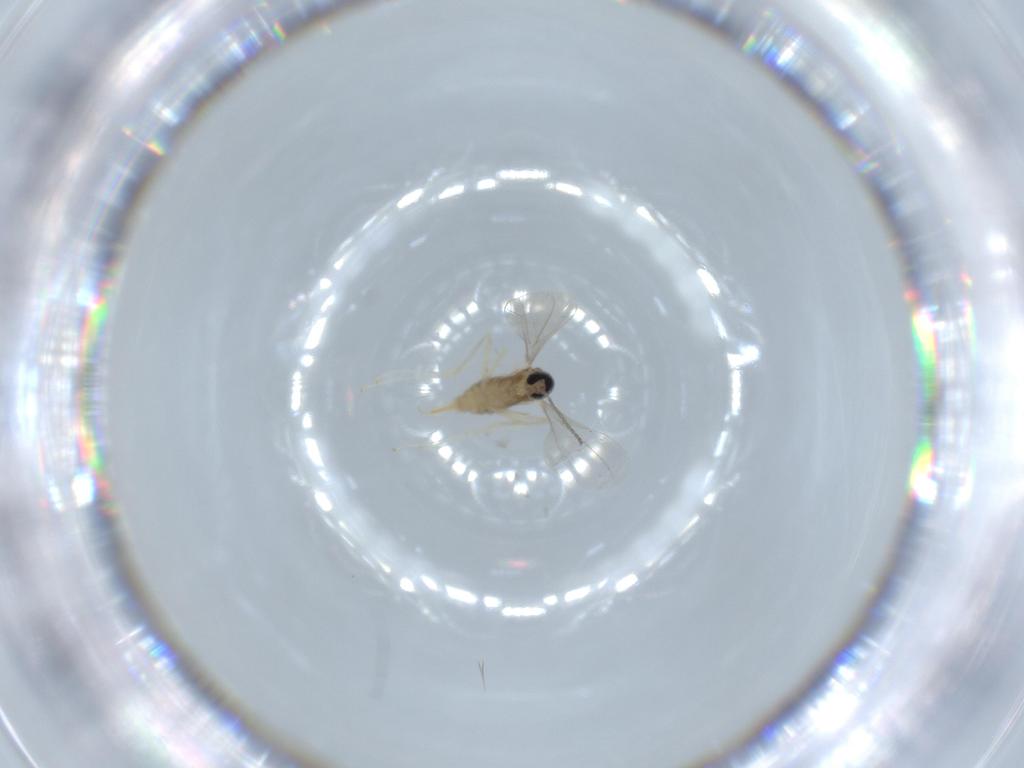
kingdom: Animalia
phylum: Arthropoda
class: Insecta
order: Diptera
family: Cecidomyiidae
